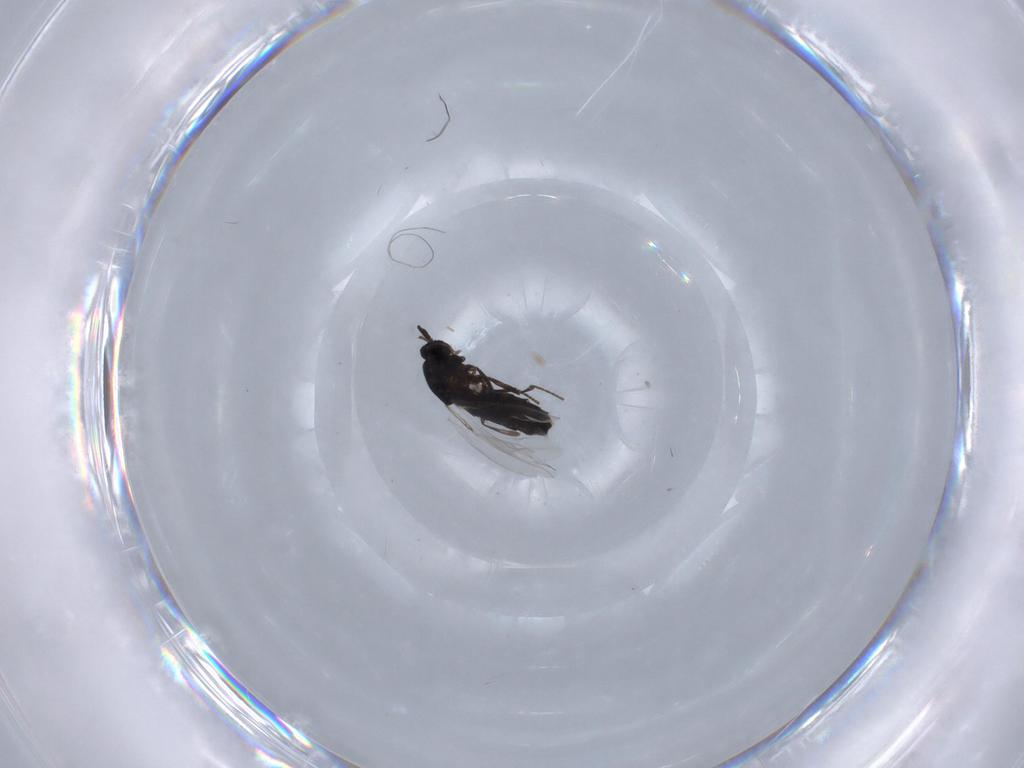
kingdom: Animalia
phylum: Arthropoda
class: Insecta
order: Diptera
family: Scatopsidae
